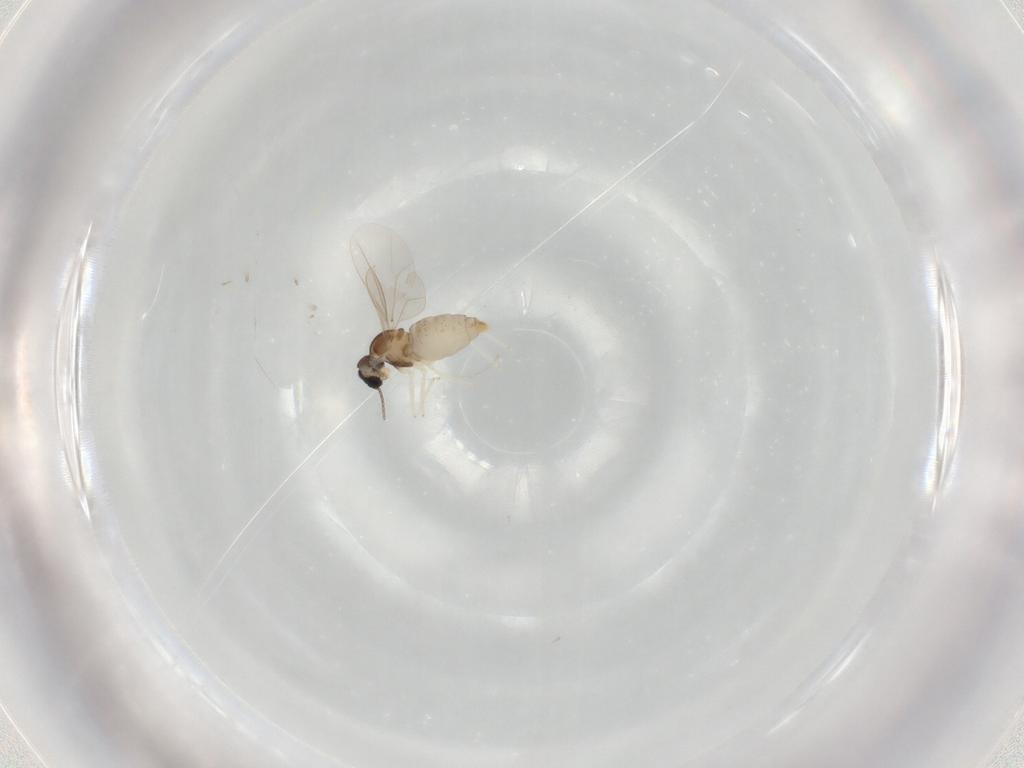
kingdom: Animalia
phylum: Arthropoda
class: Insecta
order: Diptera
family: Cecidomyiidae
